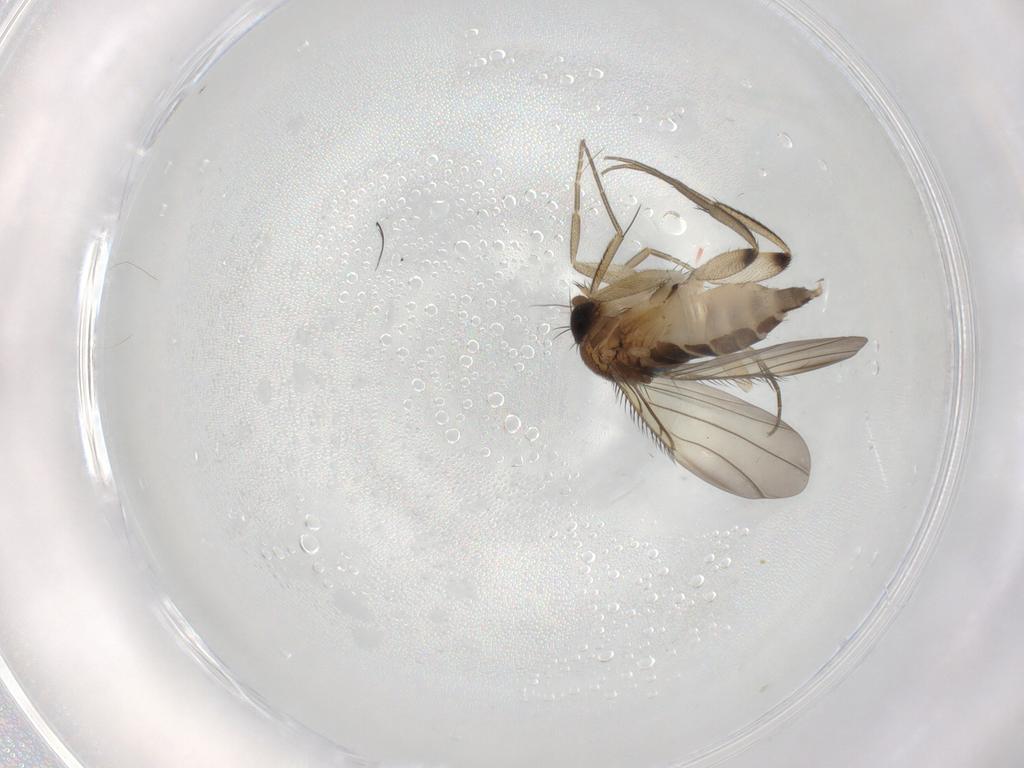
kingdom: Animalia
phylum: Arthropoda
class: Insecta
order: Diptera
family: Phoridae
